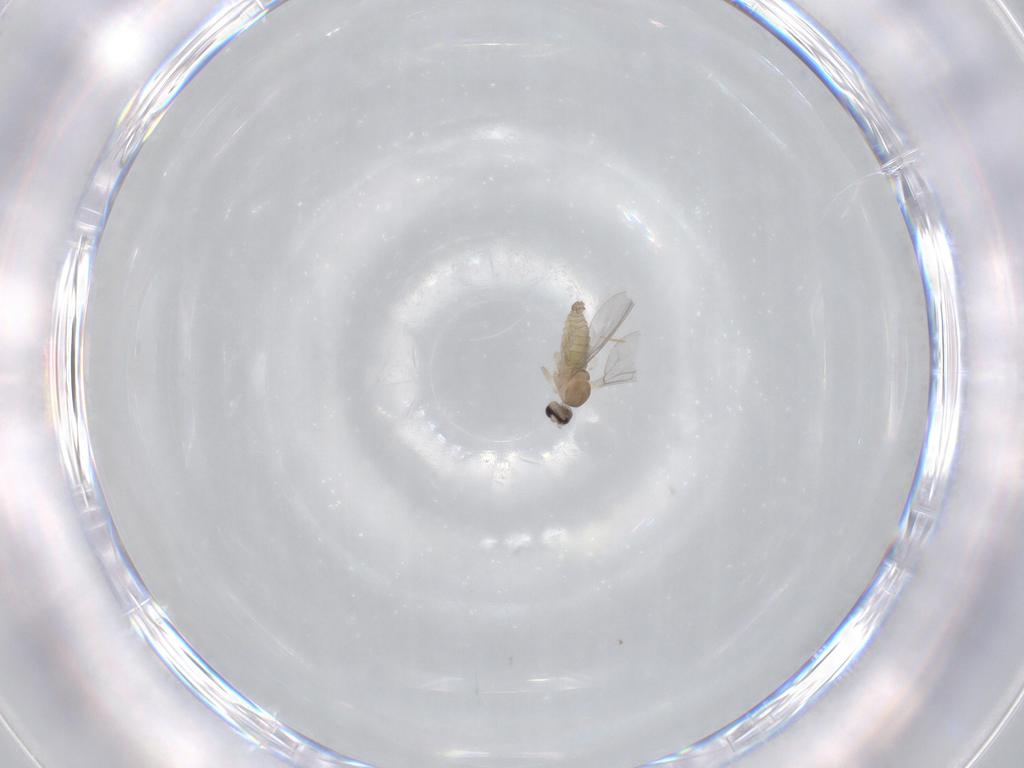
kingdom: Animalia
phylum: Arthropoda
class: Insecta
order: Diptera
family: Cecidomyiidae
